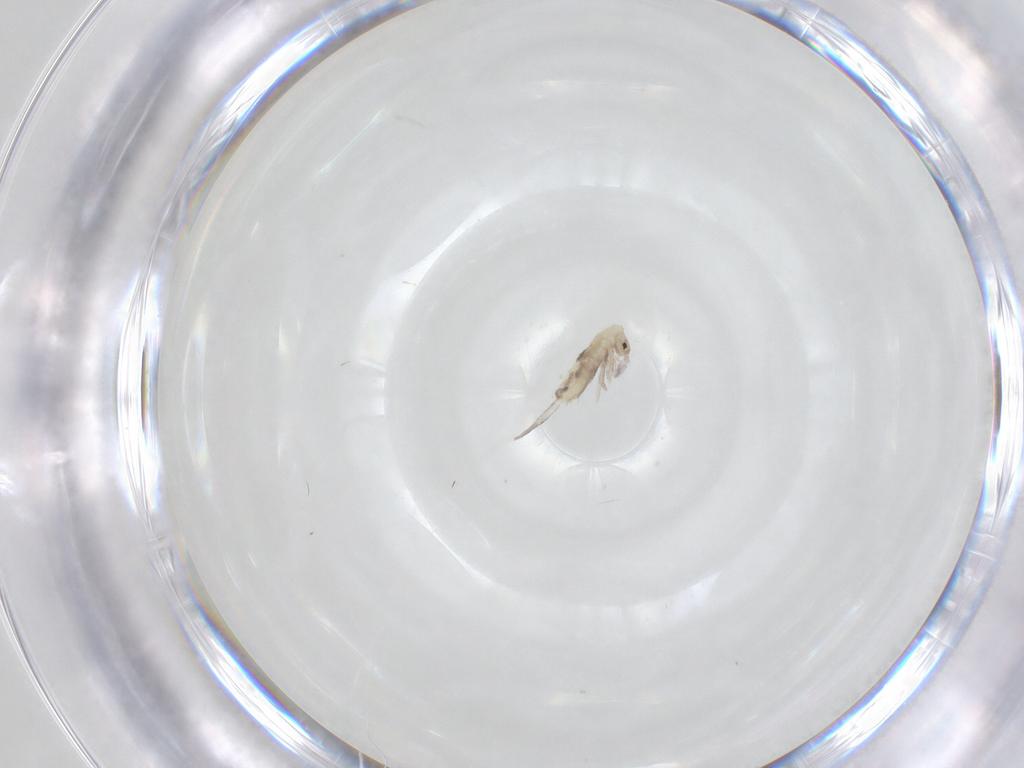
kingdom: Animalia
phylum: Arthropoda
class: Collembola
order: Entomobryomorpha
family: Entomobryidae
